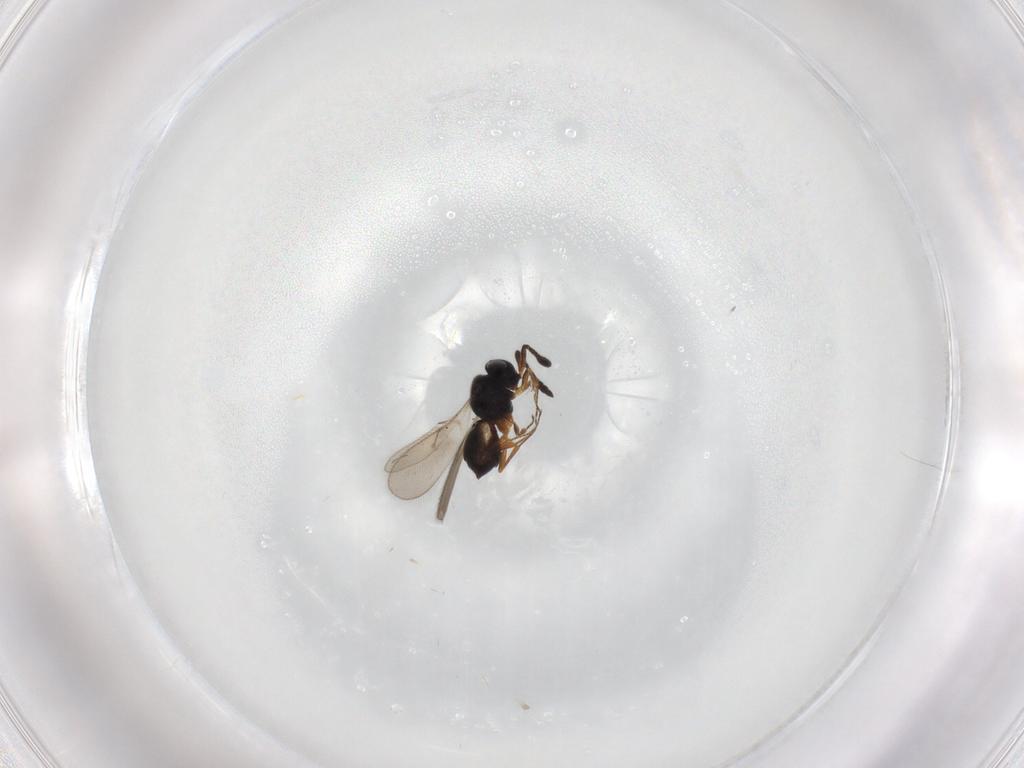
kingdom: Animalia
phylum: Arthropoda
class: Insecta
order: Hymenoptera
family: Scelionidae
